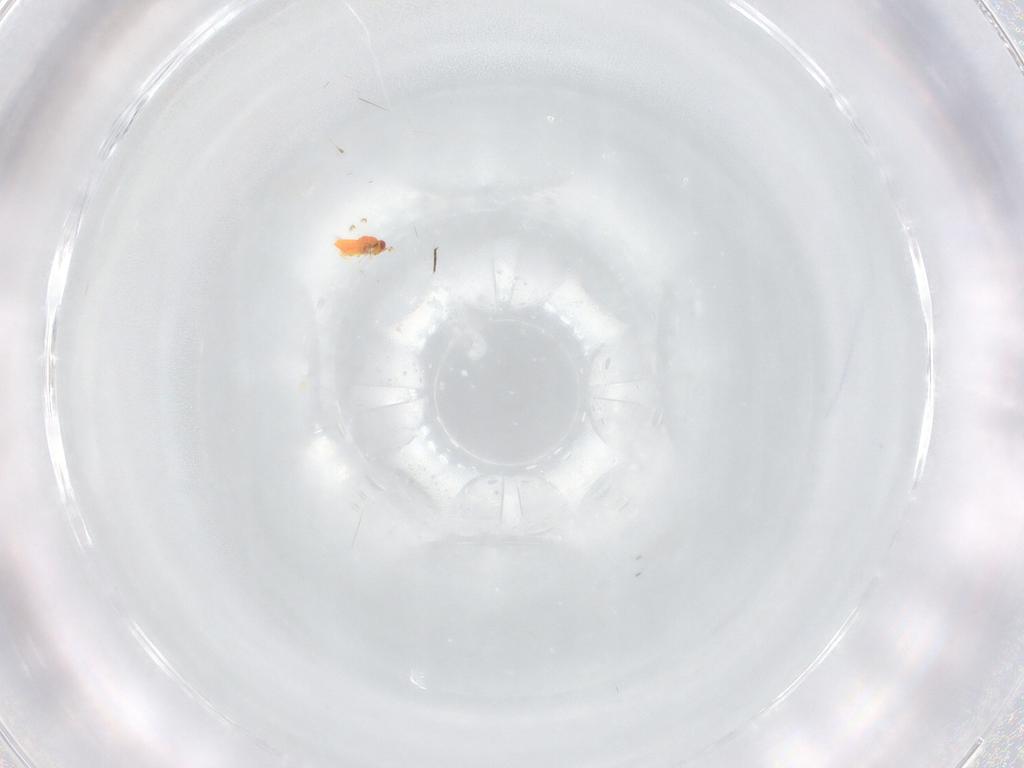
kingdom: Animalia
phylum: Arthropoda
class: Insecta
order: Hymenoptera
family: Trichogrammatidae
